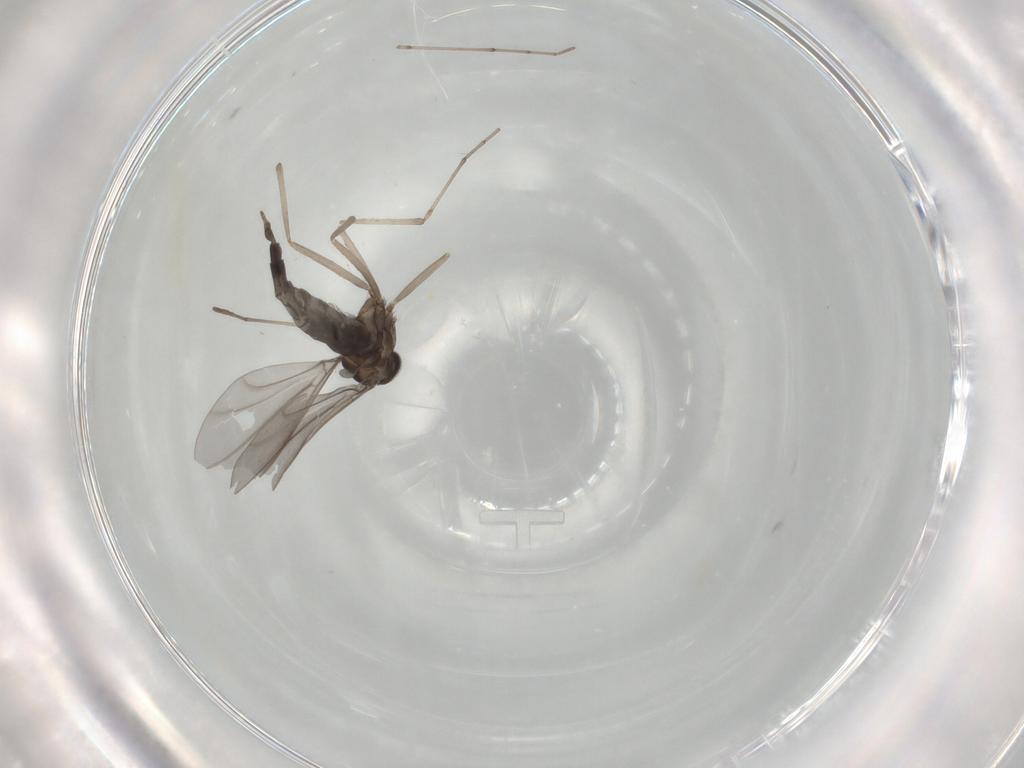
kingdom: Animalia
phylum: Arthropoda
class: Insecta
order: Diptera
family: Cecidomyiidae
